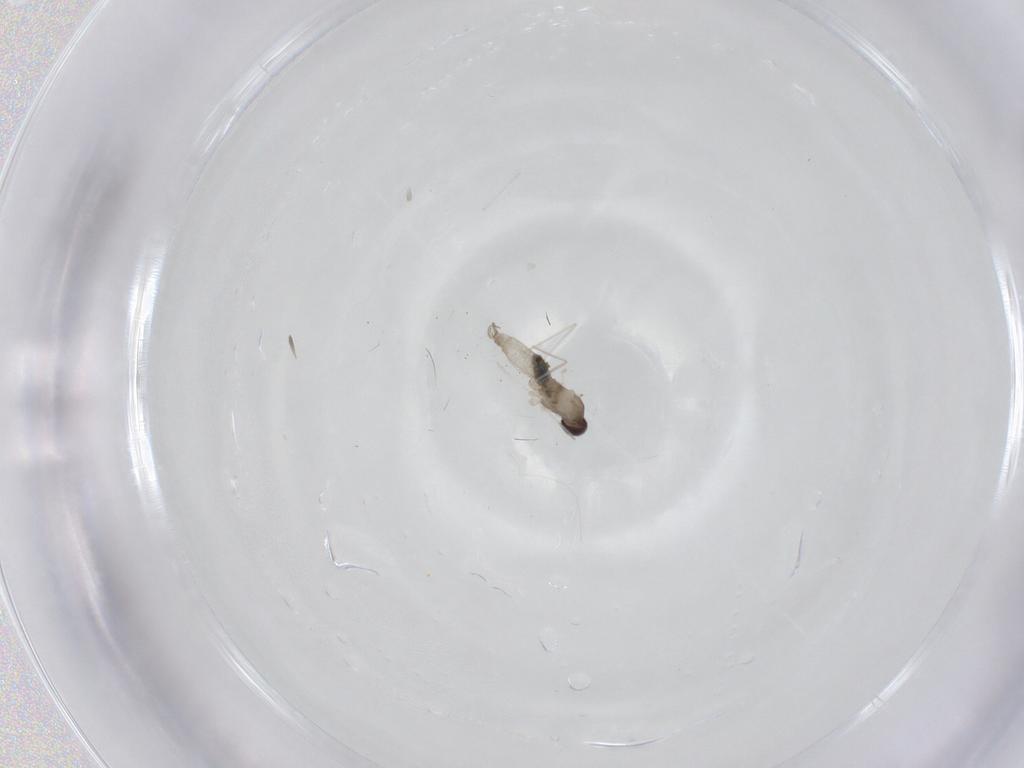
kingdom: Animalia
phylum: Arthropoda
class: Insecta
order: Diptera
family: Cecidomyiidae
